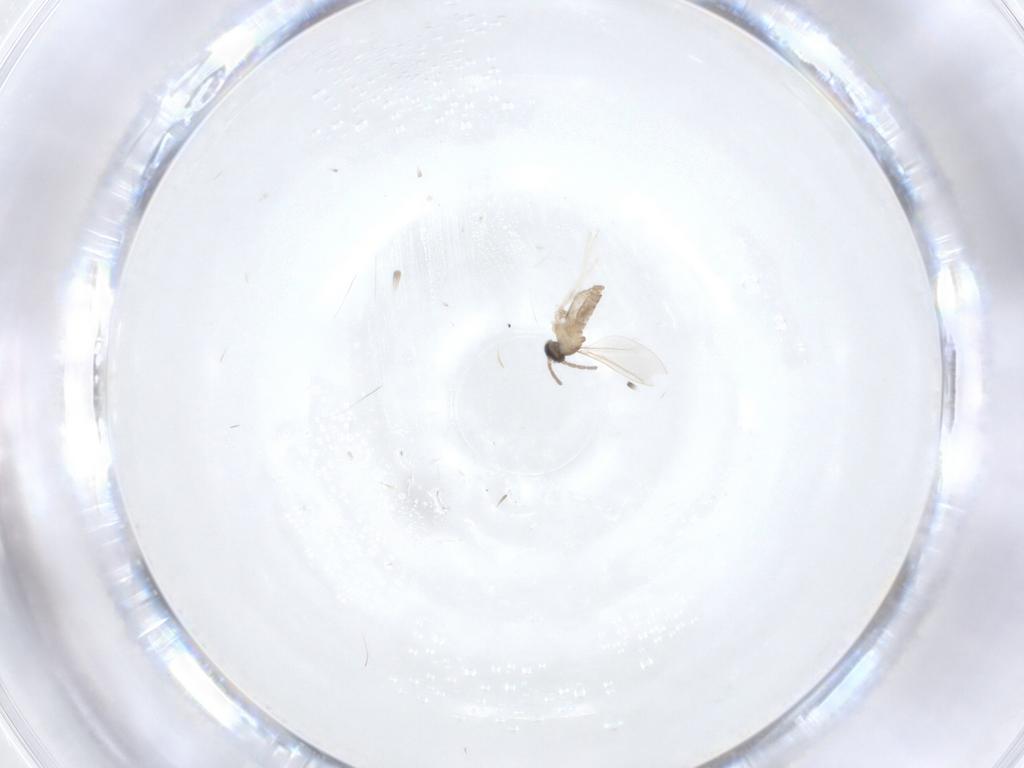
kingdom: Animalia
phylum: Arthropoda
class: Insecta
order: Diptera
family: Cecidomyiidae
